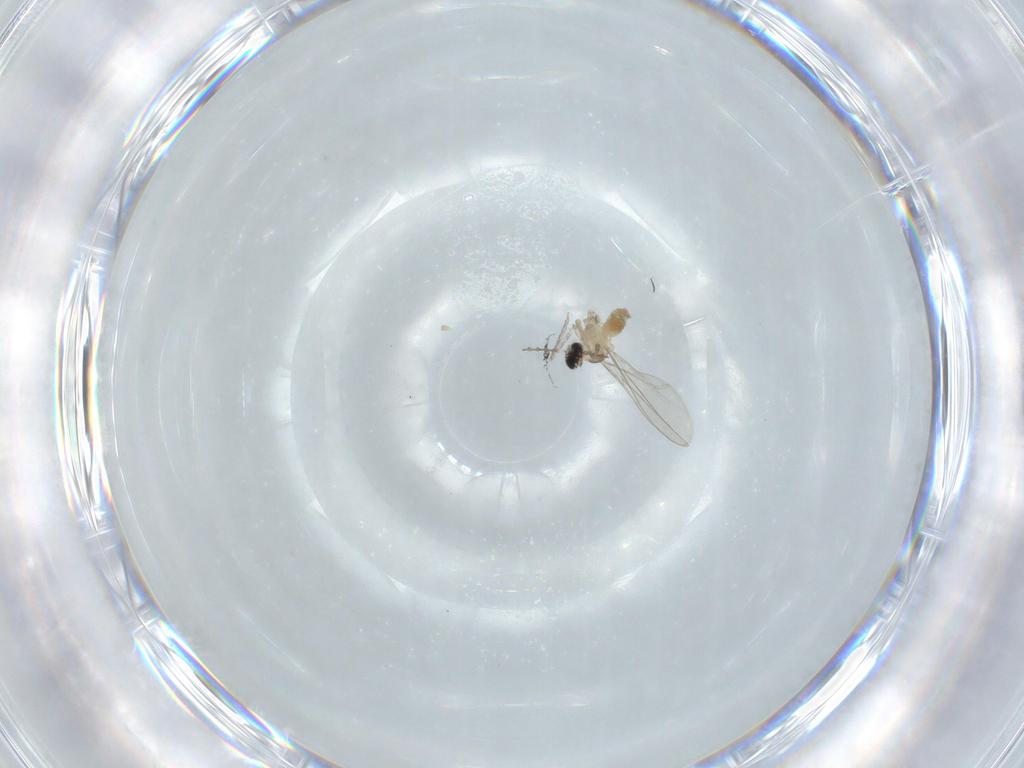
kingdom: Animalia
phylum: Arthropoda
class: Insecta
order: Diptera
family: Cecidomyiidae
